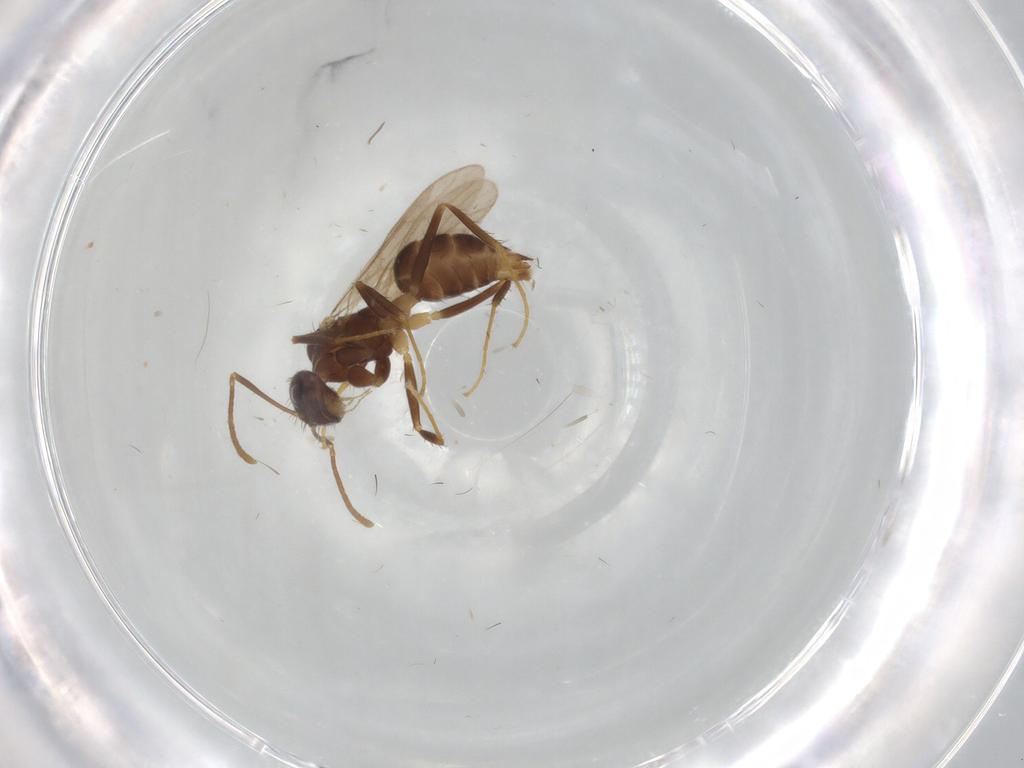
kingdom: Animalia
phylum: Arthropoda
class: Insecta
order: Hymenoptera
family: Formicidae
